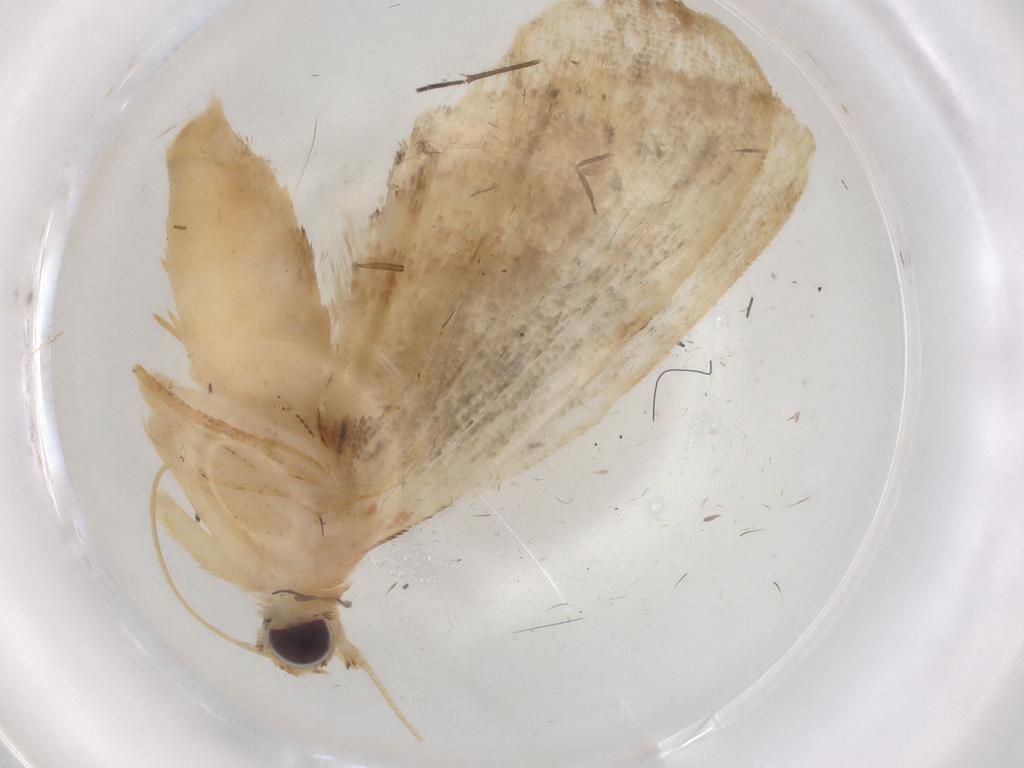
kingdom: Animalia
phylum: Arthropoda
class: Insecta
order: Lepidoptera
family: Erebidae
